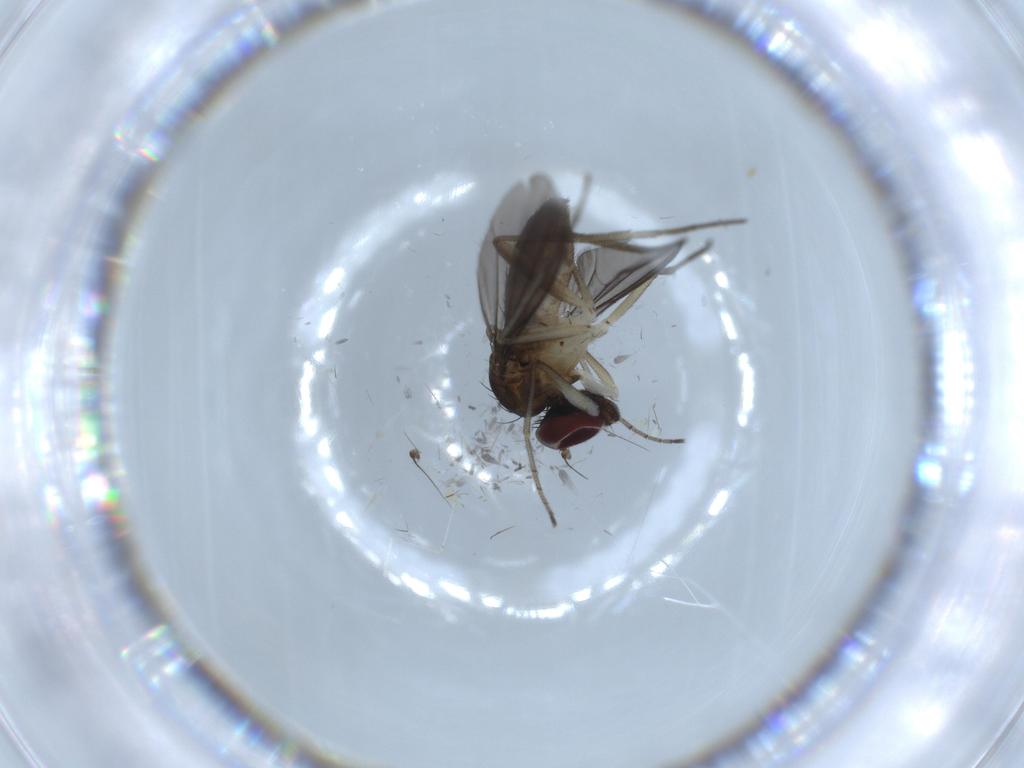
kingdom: Animalia
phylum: Arthropoda
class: Insecta
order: Diptera
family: Dolichopodidae
